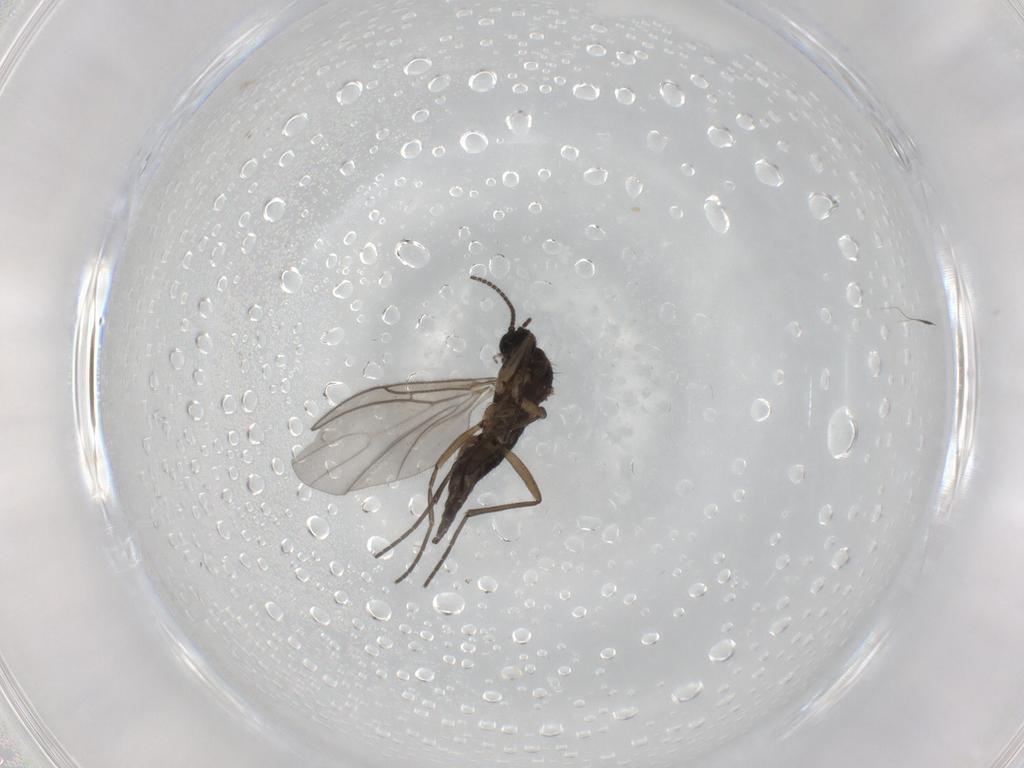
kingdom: Animalia
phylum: Arthropoda
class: Insecta
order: Diptera
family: Sciaridae
